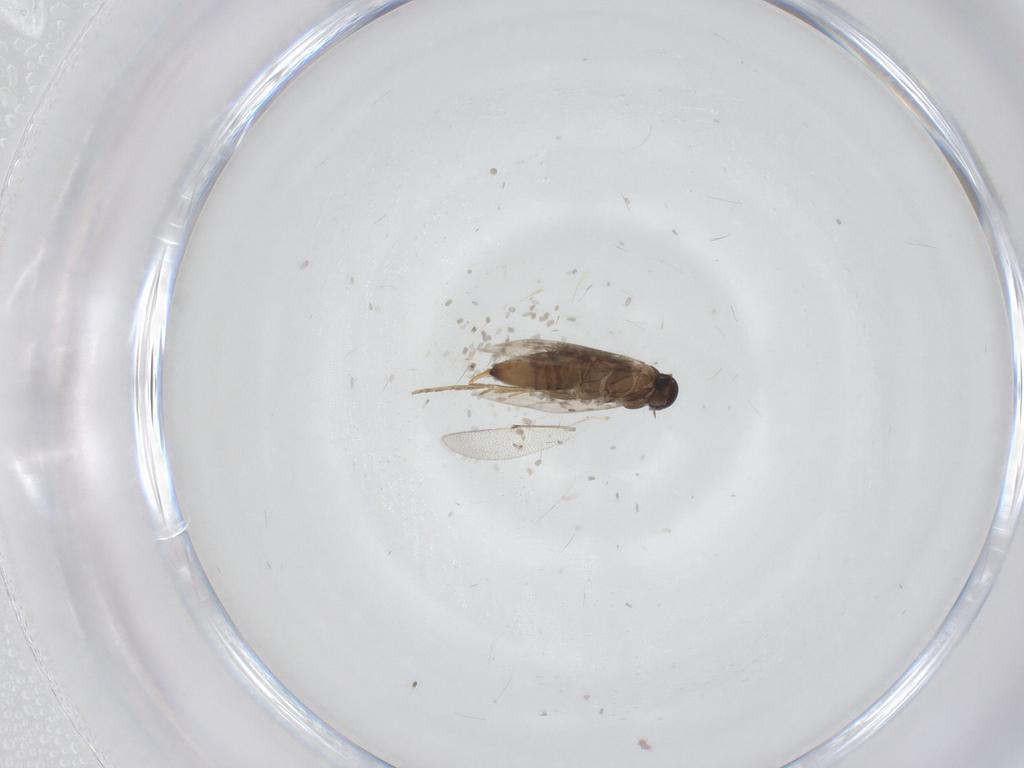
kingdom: Animalia
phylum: Arthropoda
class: Insecta
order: Lepidoptera
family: Heliozelidae
